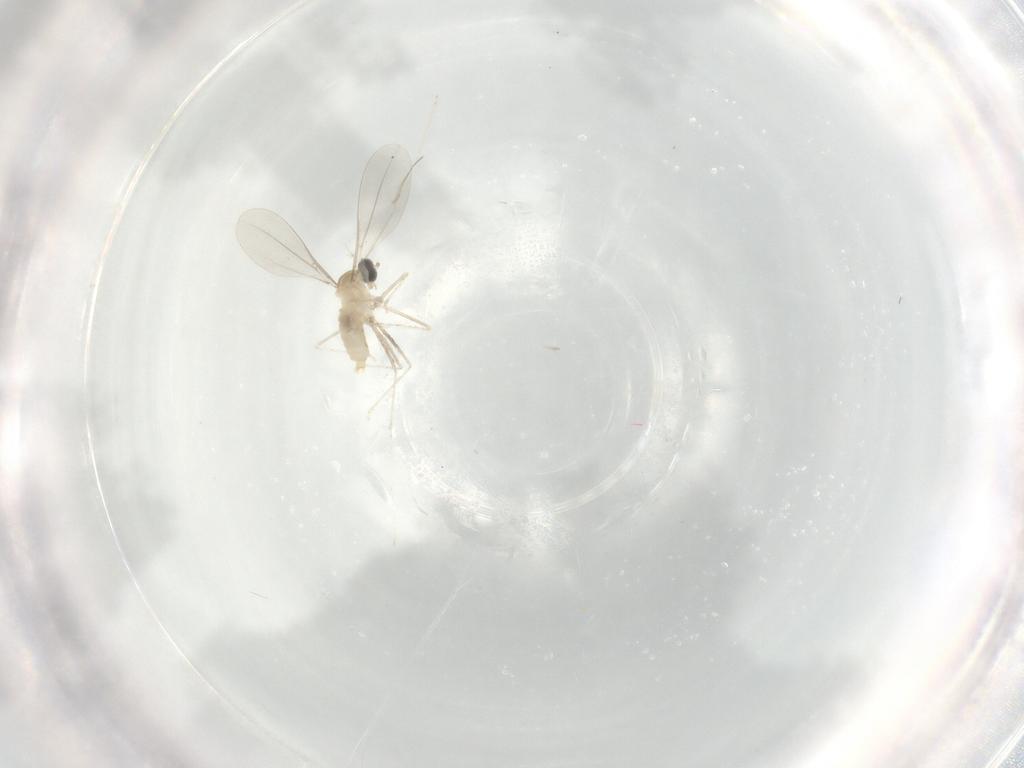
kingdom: Animalia
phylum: Arthropoda
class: Insecta
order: Diptera
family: Cecidomyiidae
